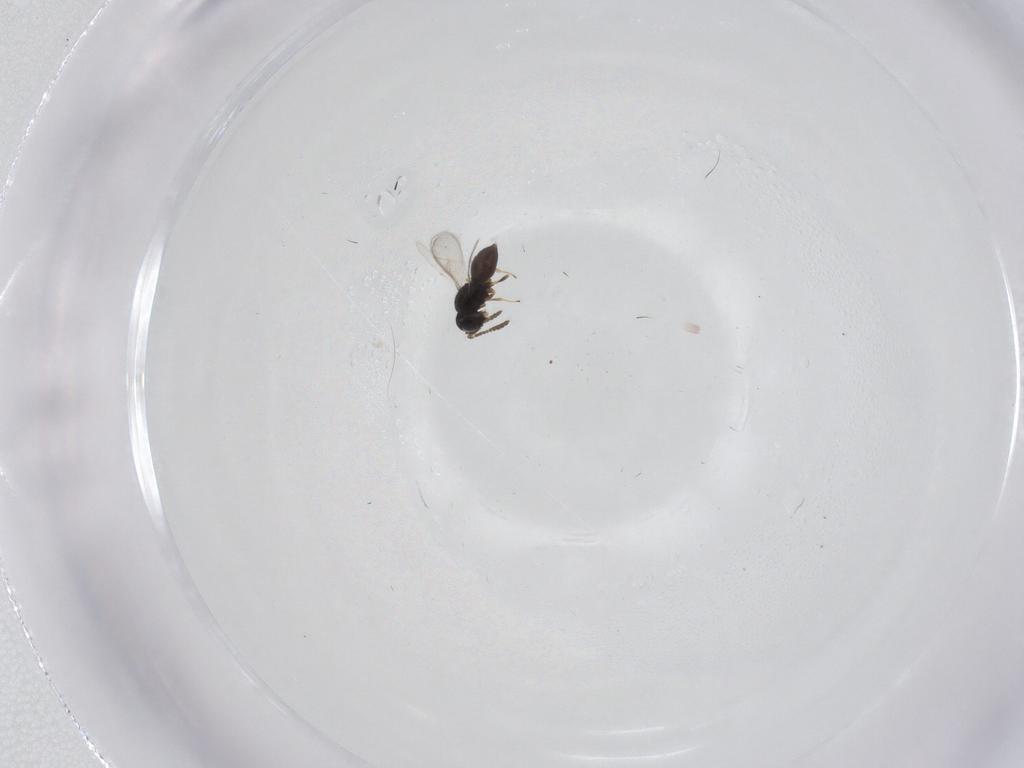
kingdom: Animalia
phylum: Arthropoda
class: Insecta
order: Hymenoptera
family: Scelionidae
